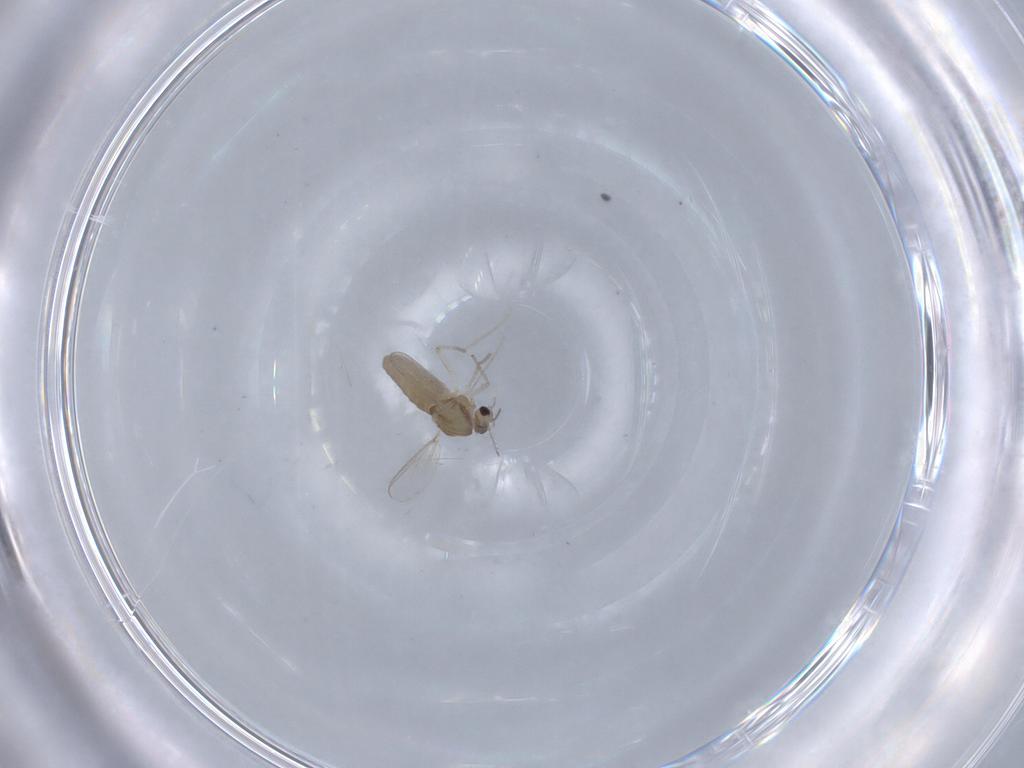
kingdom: Animalia
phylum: Arthropoda
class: Insecta
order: Diptera
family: Chironomidae
